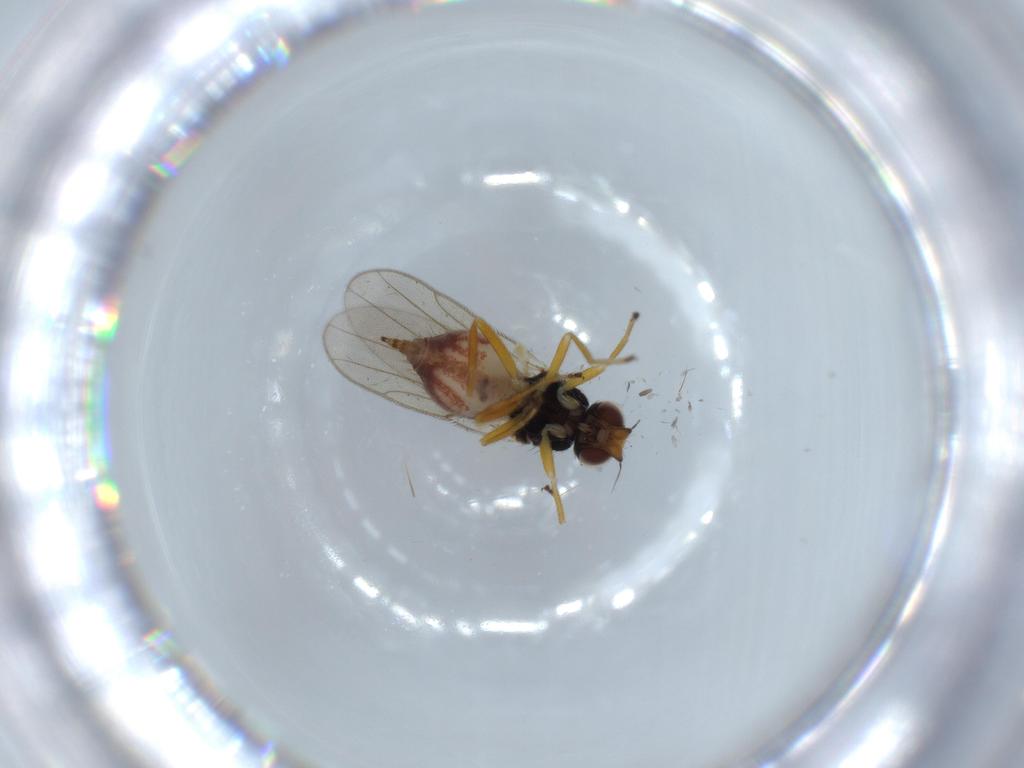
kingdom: Animalia
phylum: Arthropoda
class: Insecta
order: Diptera
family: Chloropidae
